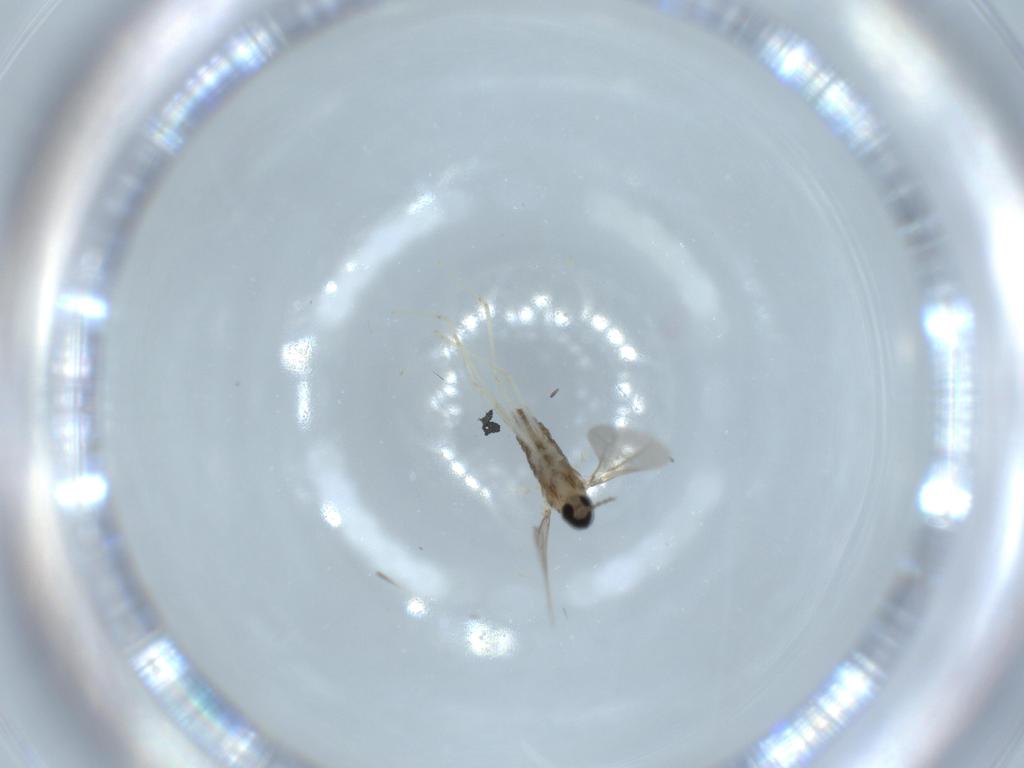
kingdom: Animalia
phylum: Arthropoda
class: Insecta
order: Diptera
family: Cecidomyiidae
